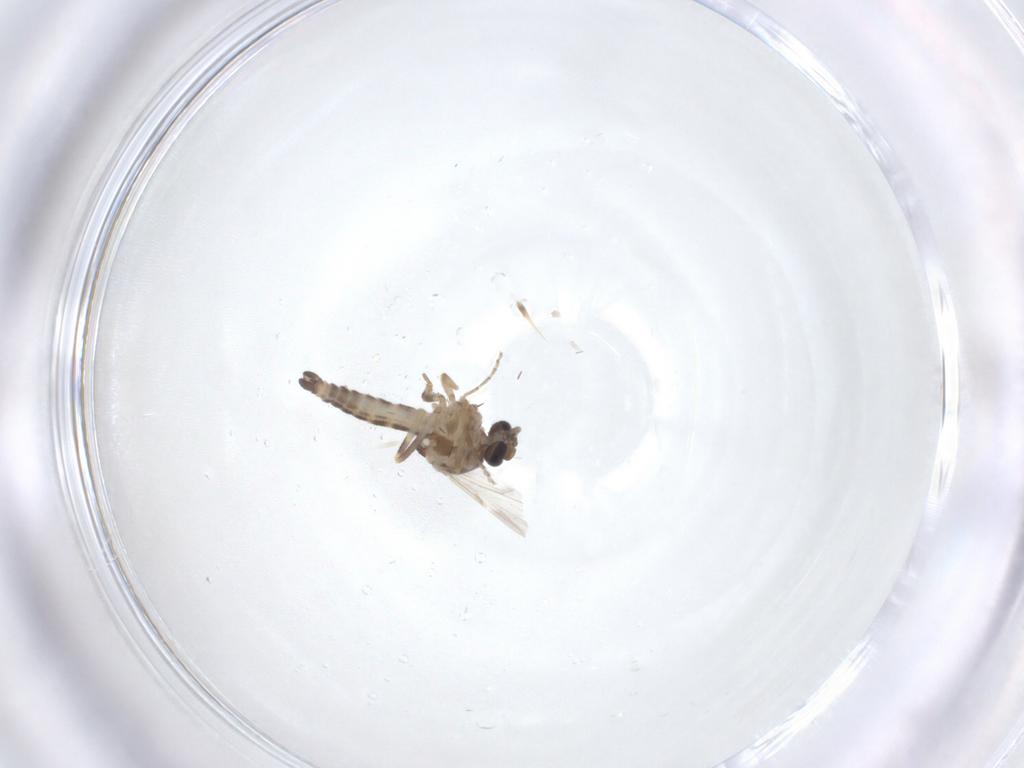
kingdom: Animalia
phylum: Arthropoda
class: Insecta
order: Diptera
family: Ceratopogonidae
